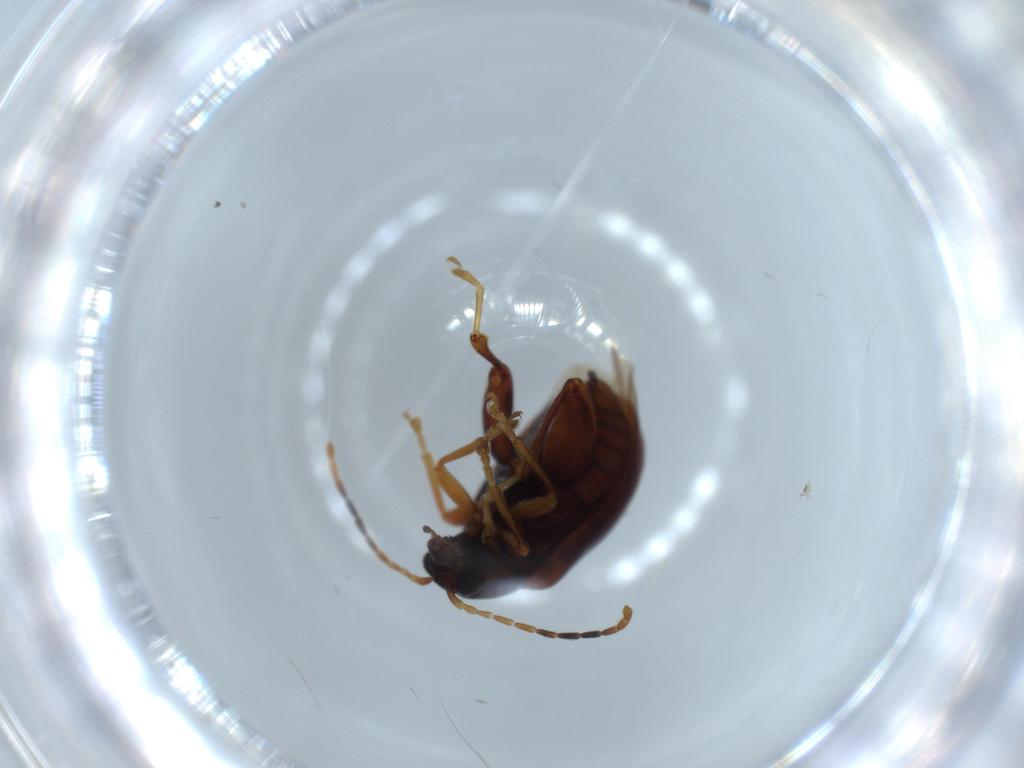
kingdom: Animalia
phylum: Arthropoda
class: Insecta
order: Coleoptera
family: Chrysomelidae
